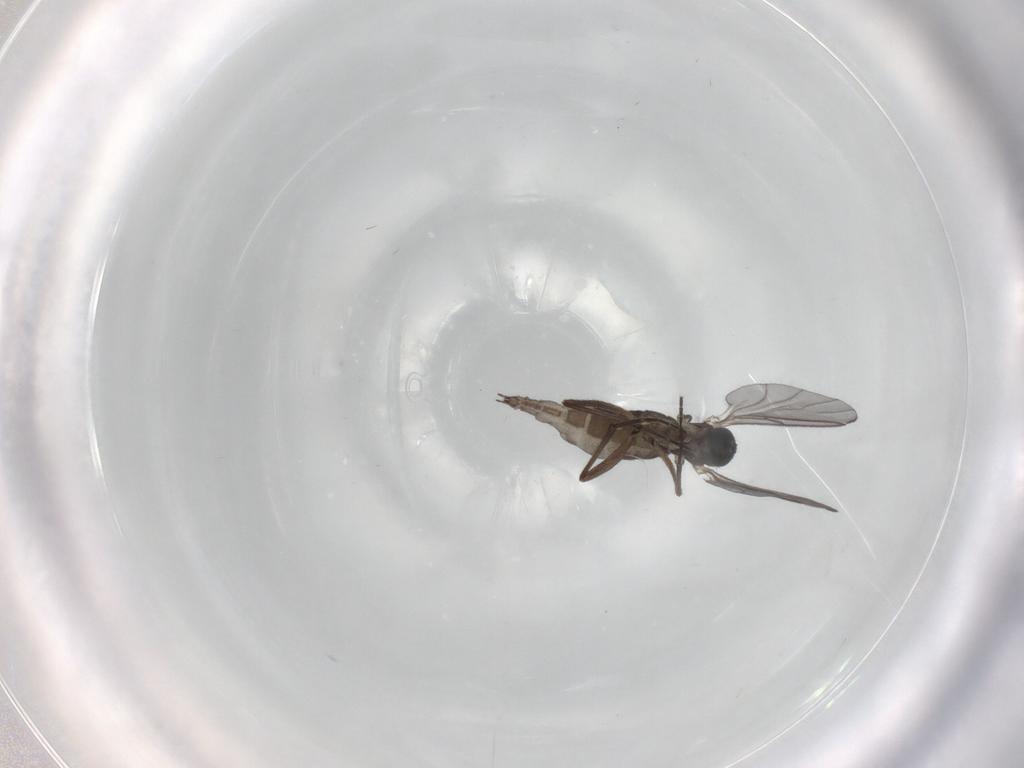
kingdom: Animalia
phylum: Arthropoda
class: Insecta
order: Diptera
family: Sciaridae
